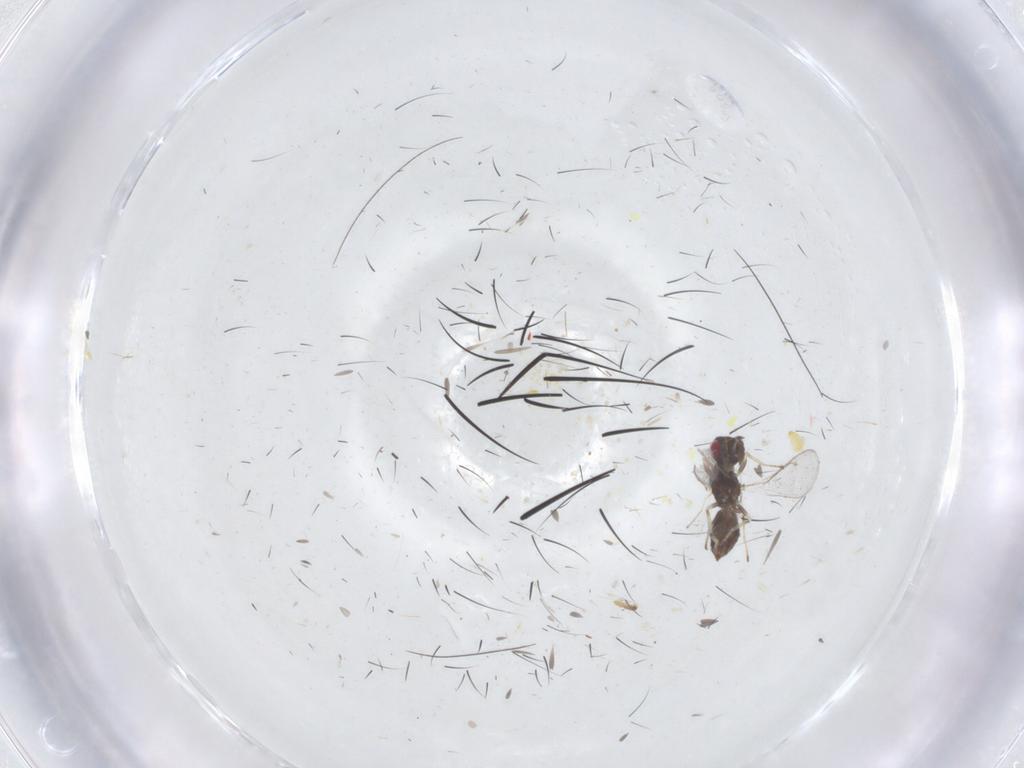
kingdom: Animalia
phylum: Arthropoda
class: Insecta
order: Hymenoptera
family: Eulophidae
